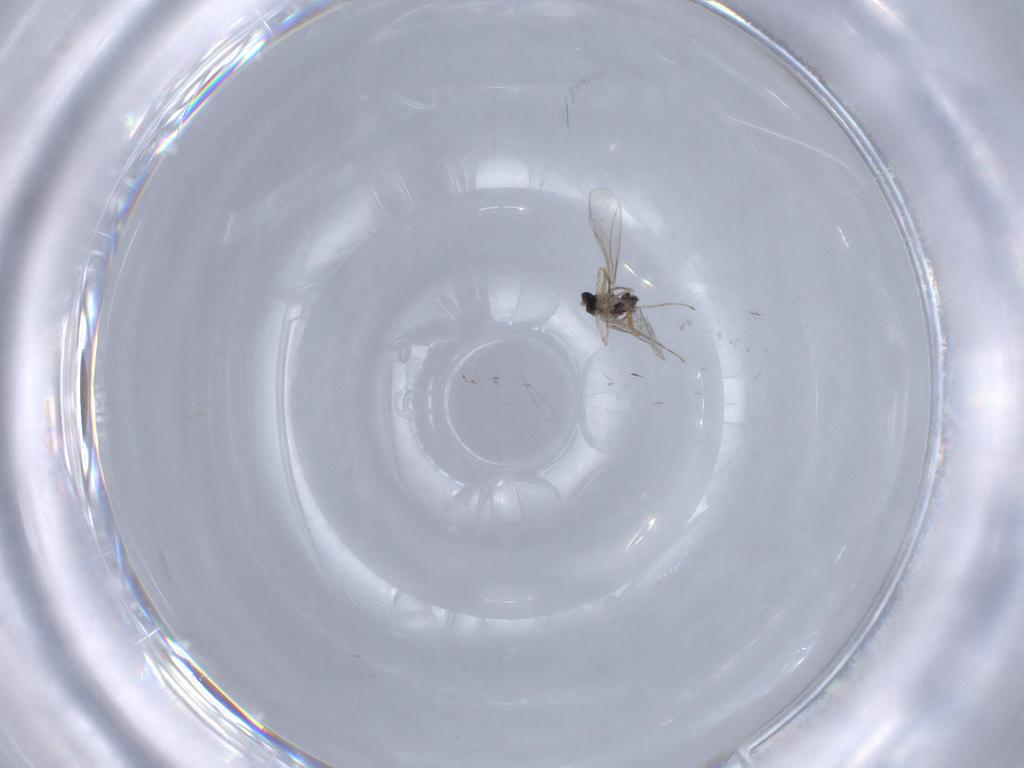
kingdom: Animalia
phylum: Arthropoda
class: Insecta
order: Diptera
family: Cecidomyiidae
